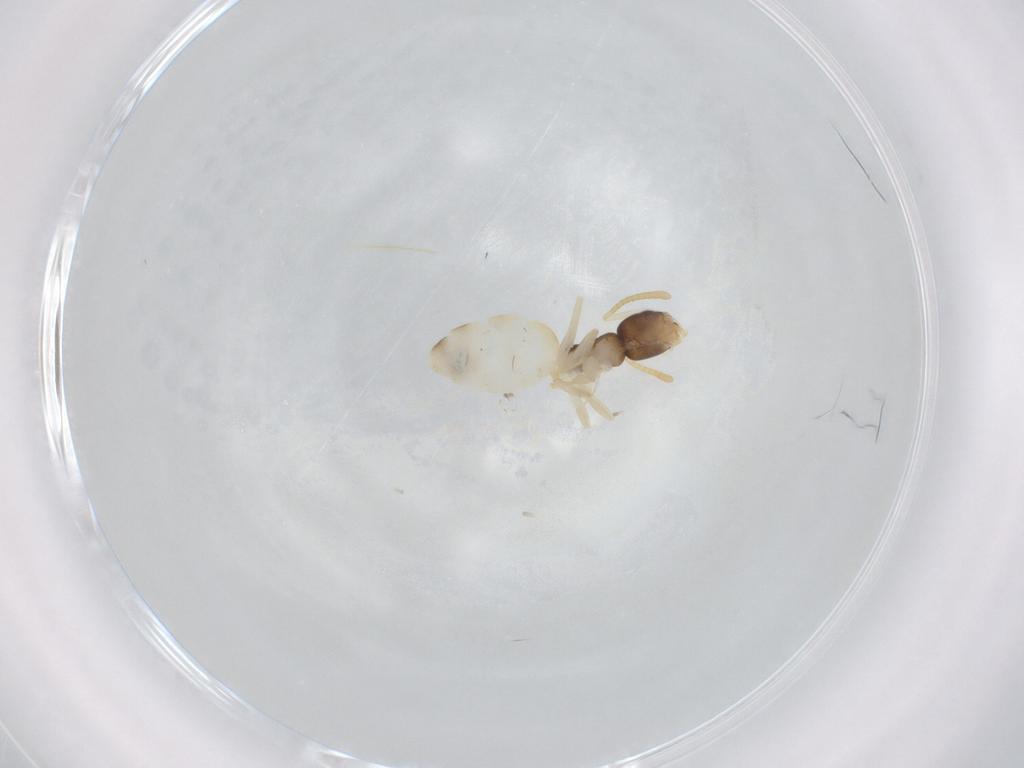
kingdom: Animalia
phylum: Arthropoda
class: Insecta
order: Hymenoptera
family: Formicidae
